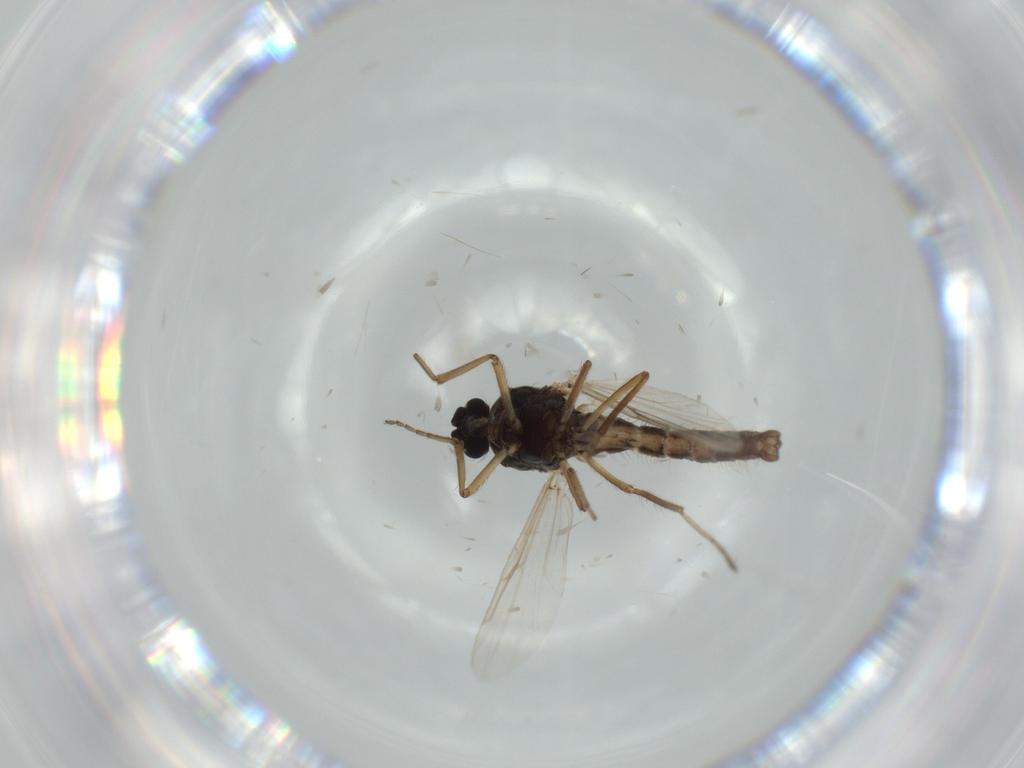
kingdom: Animalia
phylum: Arthropoda
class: Insecta
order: Diptera
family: Ceratopogonidae
